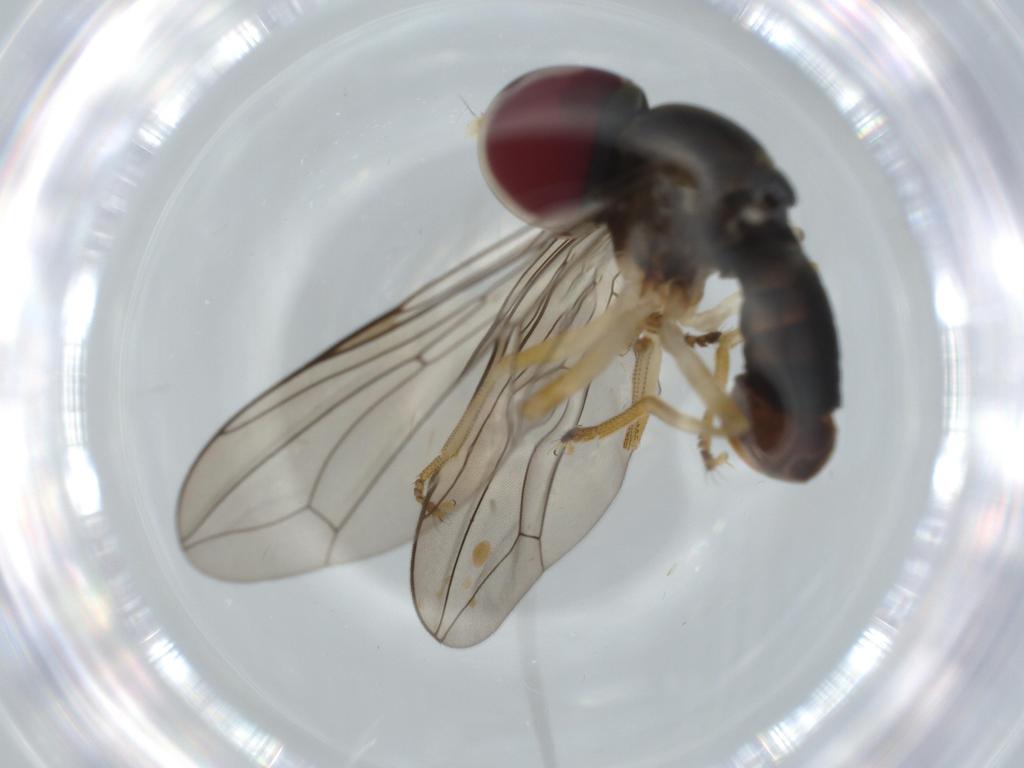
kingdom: Animalia
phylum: Arthropoda
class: Insecta
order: Diptera
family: Sciaridae
